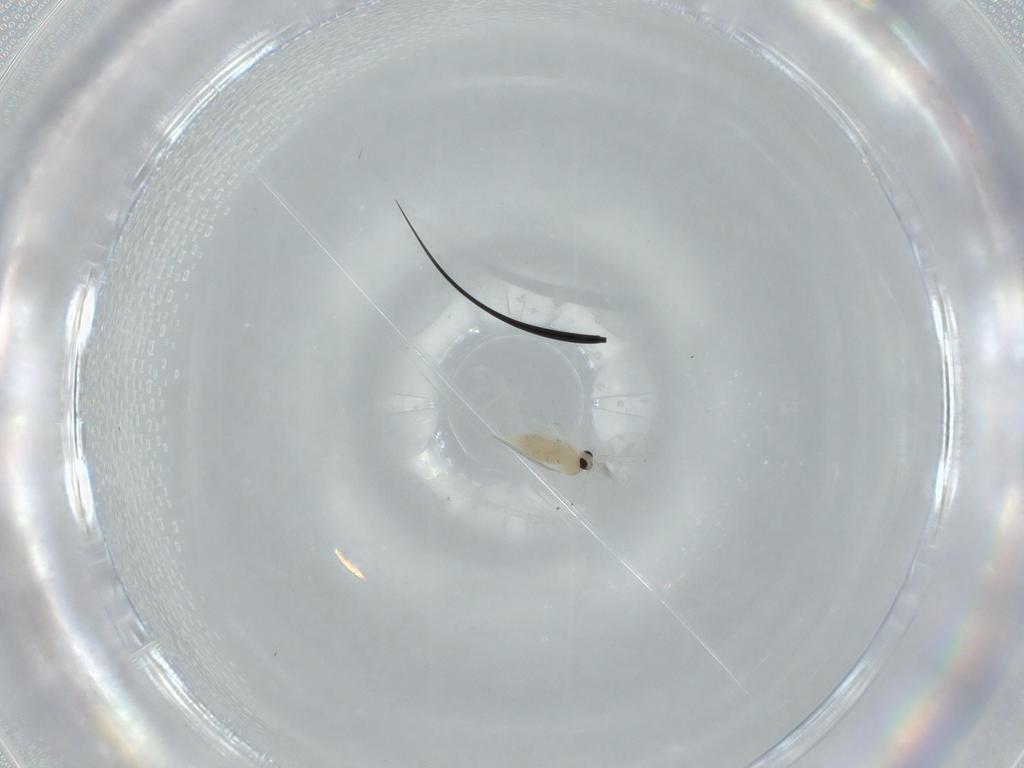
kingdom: Animalia
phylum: Arthropoda
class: Insecta
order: Diptera
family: Cecidomyiidae
